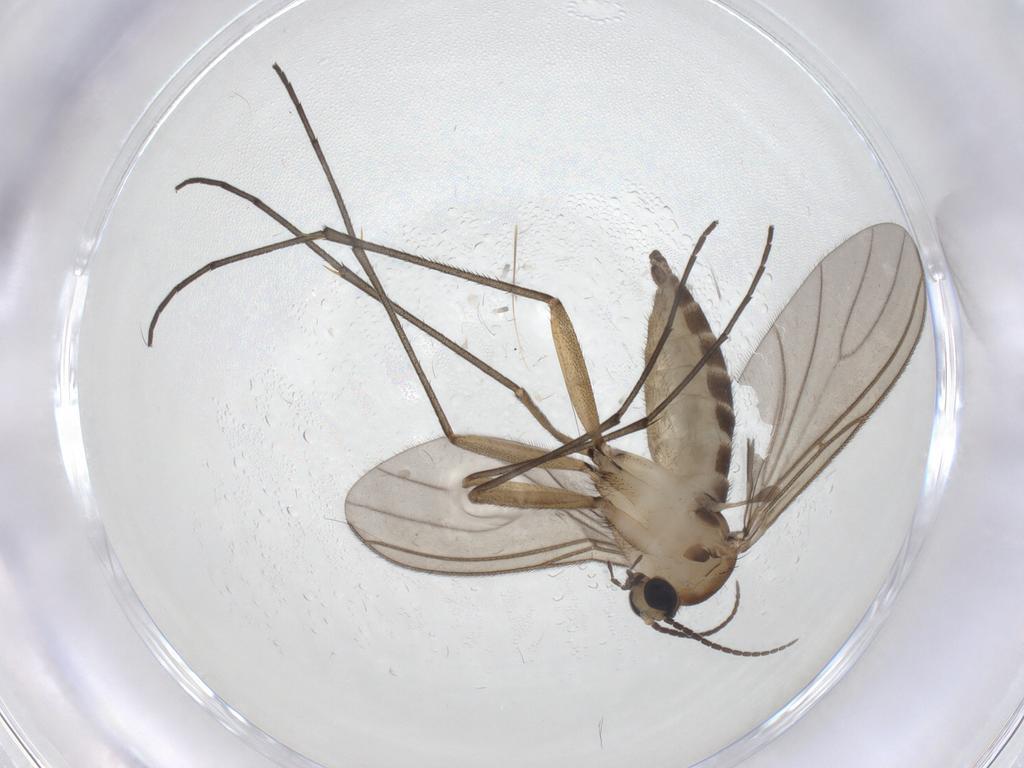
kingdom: Animalia
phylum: Arthropoda
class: Insecta
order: Diptera
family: Sciaridae
